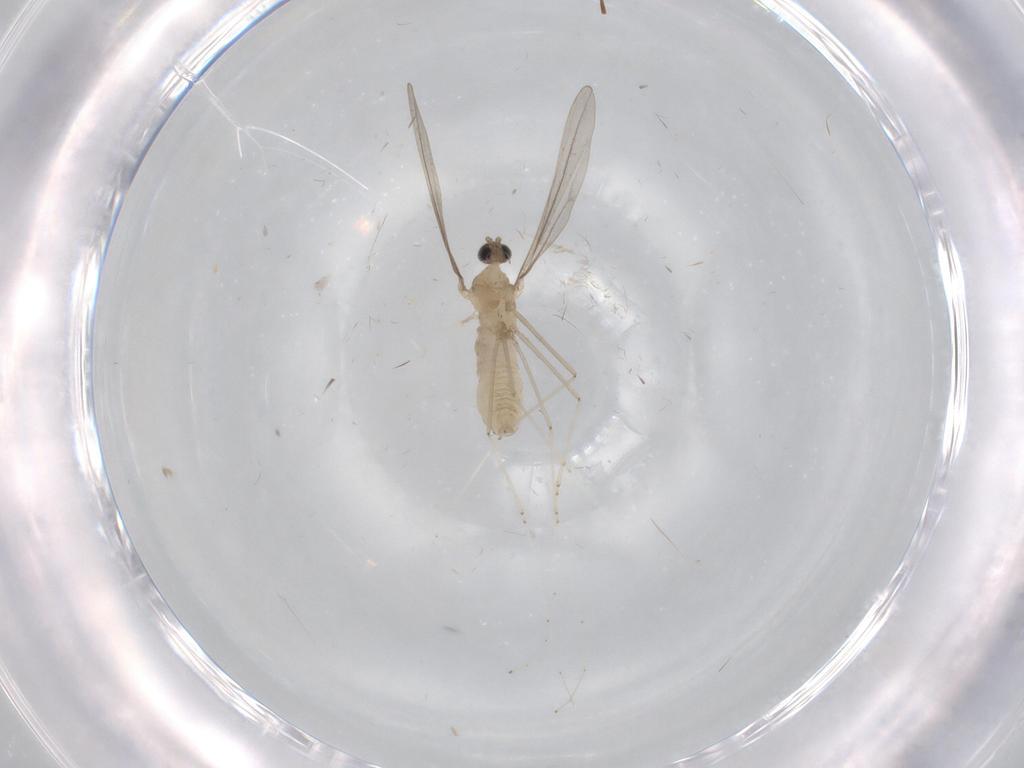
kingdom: Animalia
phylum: Arthropoda
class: Insecta
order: Diptera
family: Cecidomyiidae
